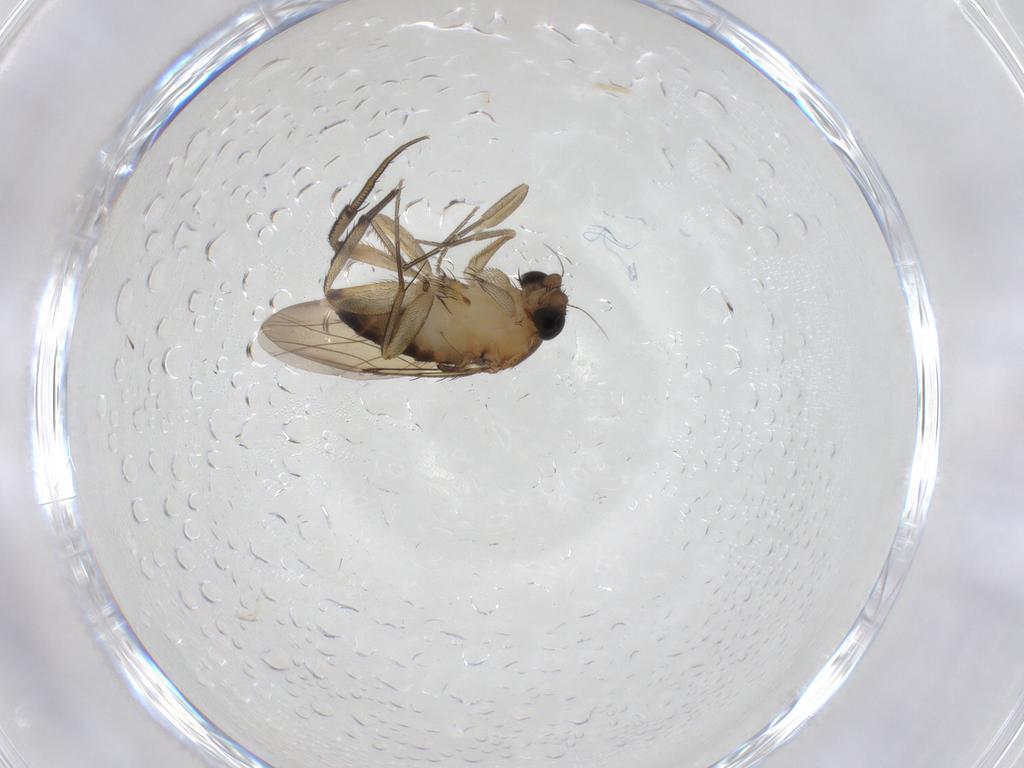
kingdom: Animalia
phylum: Arthropoda
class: Insecta
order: Diptera
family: Phoridae
